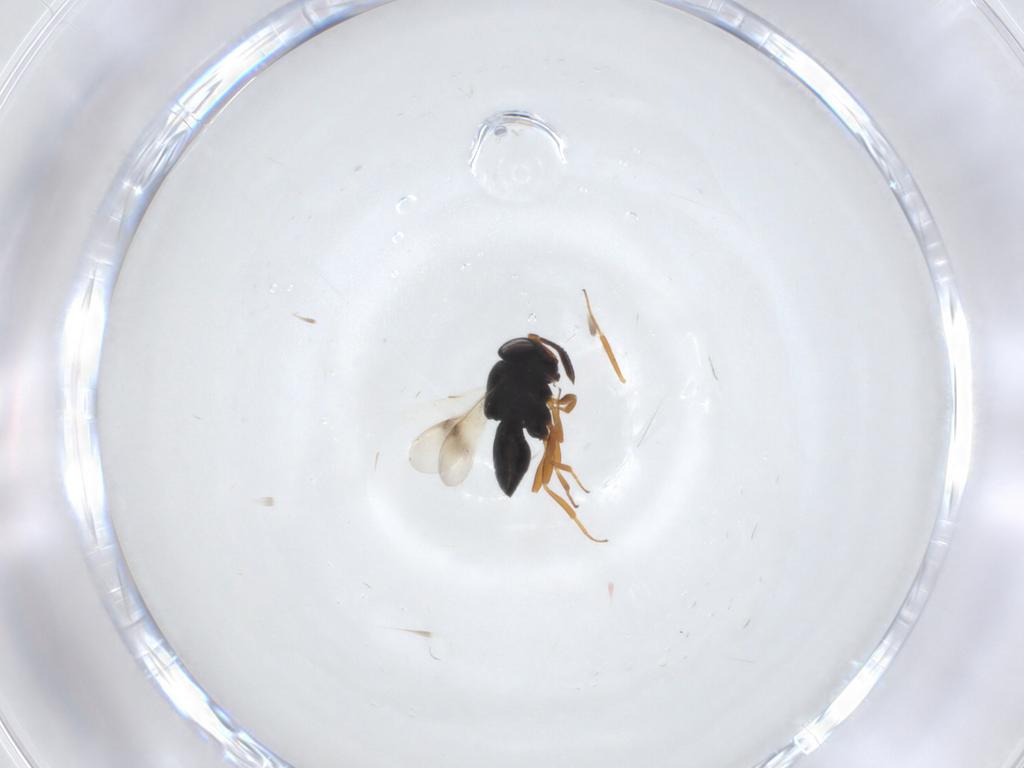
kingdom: Animalia
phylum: Arthropoda
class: Insecta
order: Hymenoptera
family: Scelionidae
